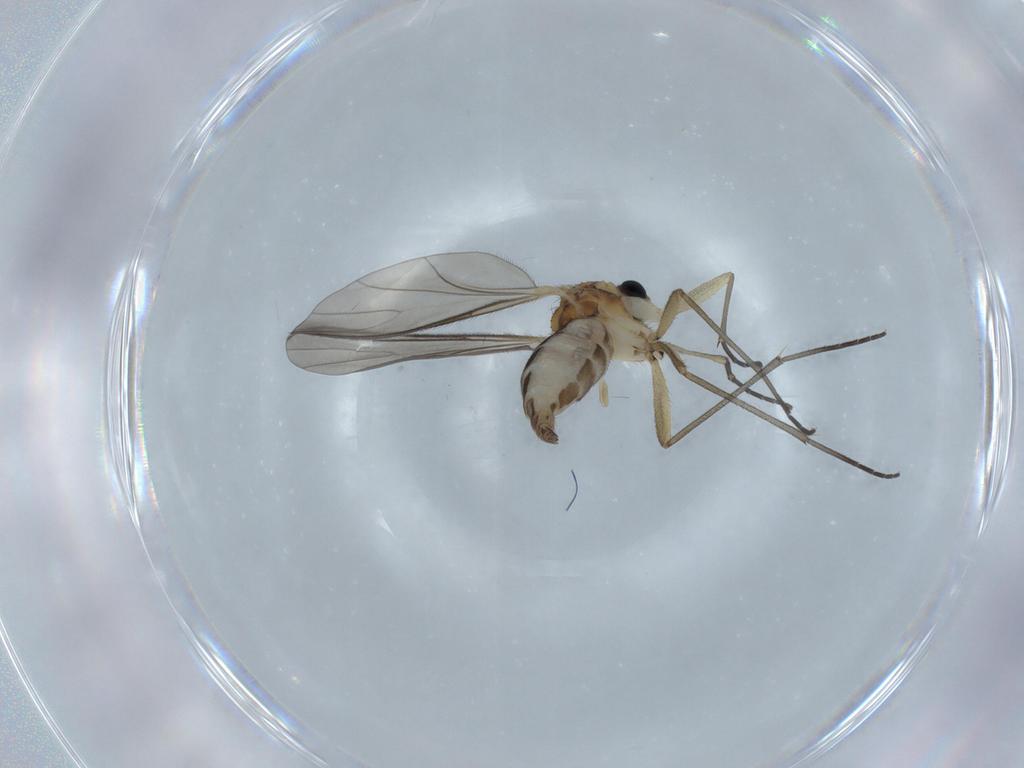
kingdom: Animalia
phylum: Arthropoda
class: Insecta
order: Diptera
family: Sciaridae
